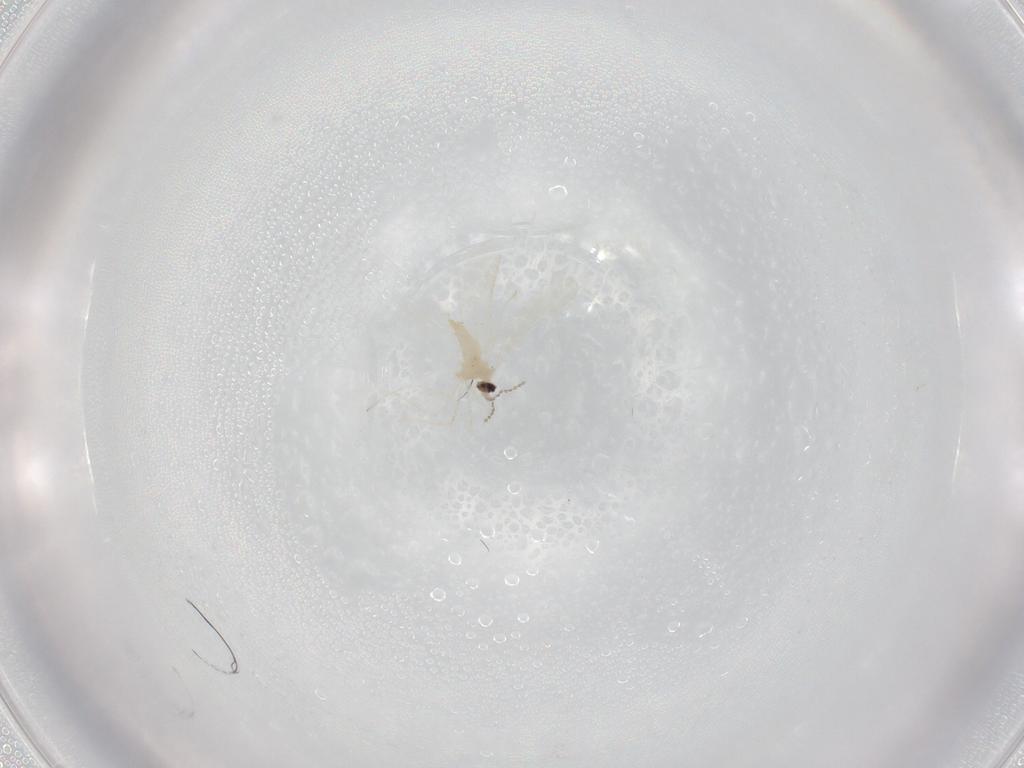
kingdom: Animalia
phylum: Arthropoda
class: Insecta
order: Diptera
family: Cecidomyiidae
